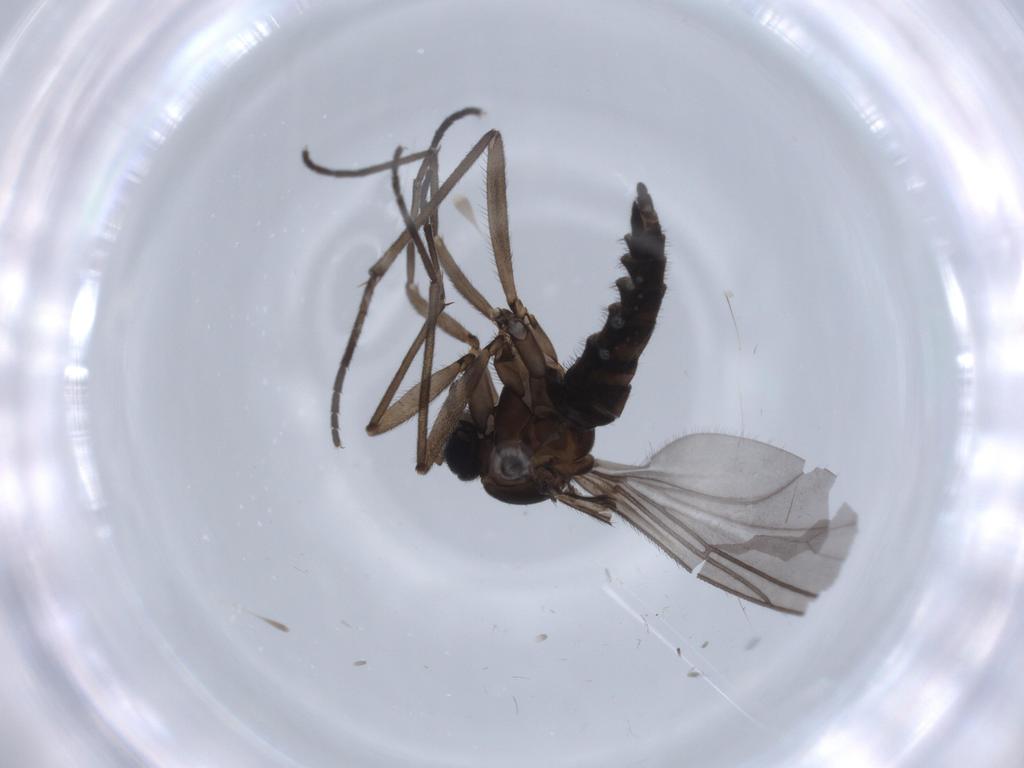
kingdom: Animalia
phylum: Arthropoda
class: Insecta
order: Diptera
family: Sciaridae
